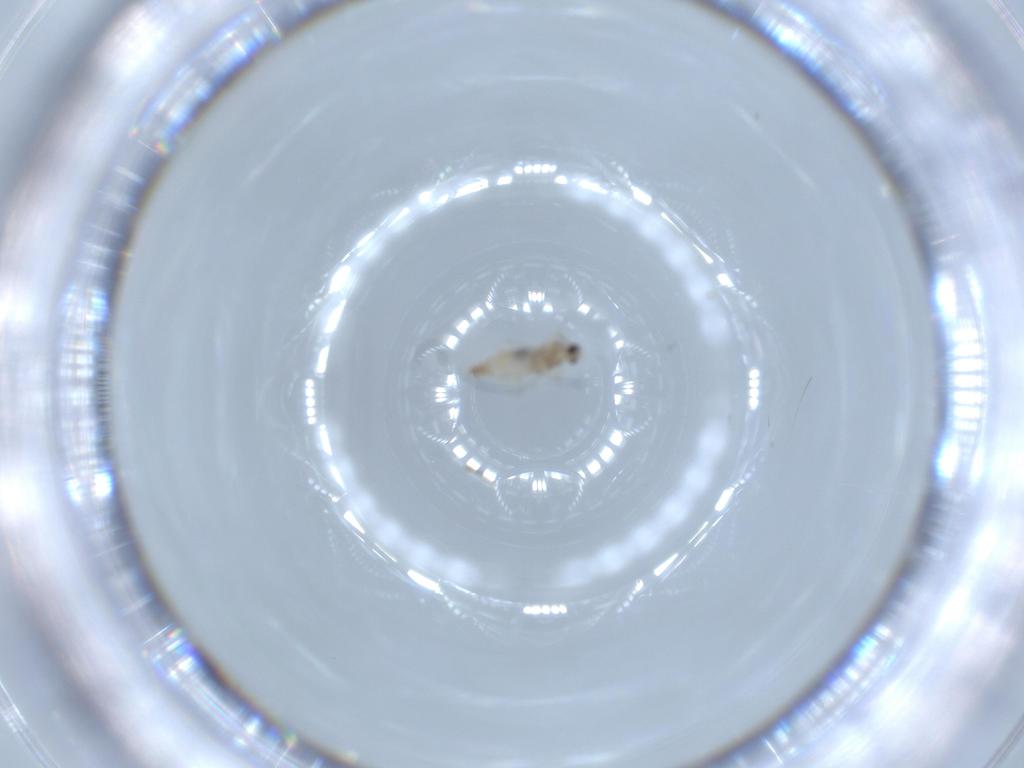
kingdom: Animalia
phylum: Arthropoda
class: Insecta
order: Diptera
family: Cecidomyiidae
